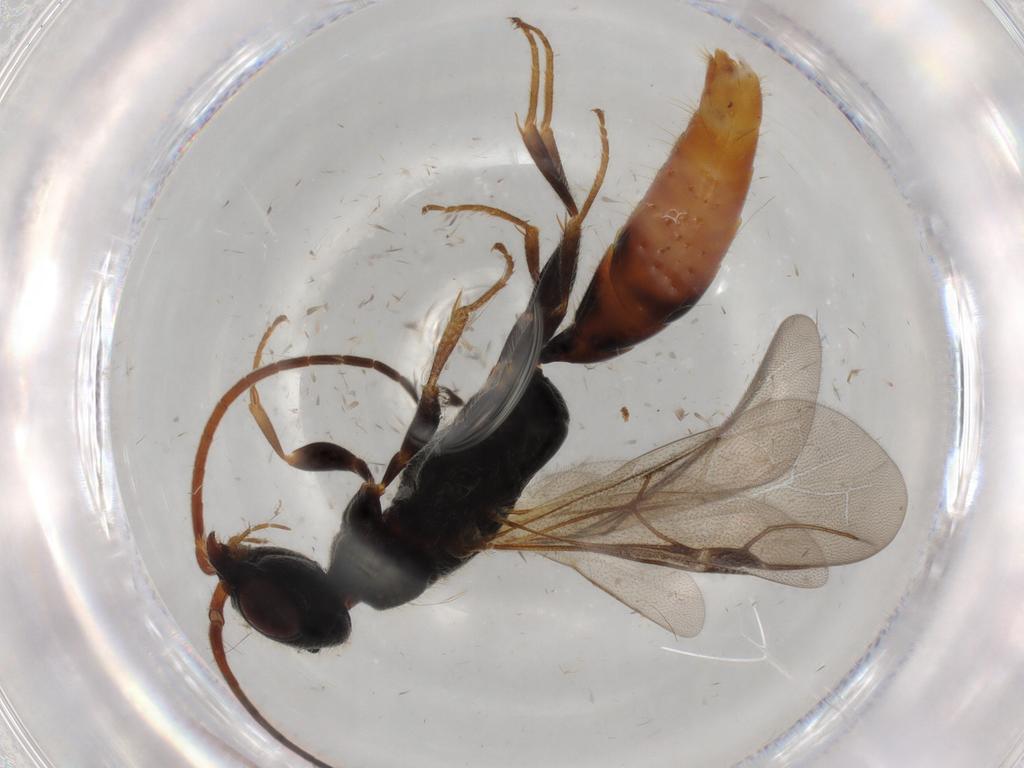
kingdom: Animalia
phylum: Arthropoda
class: Insecta
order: Hymenoptera
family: Bethylidae
